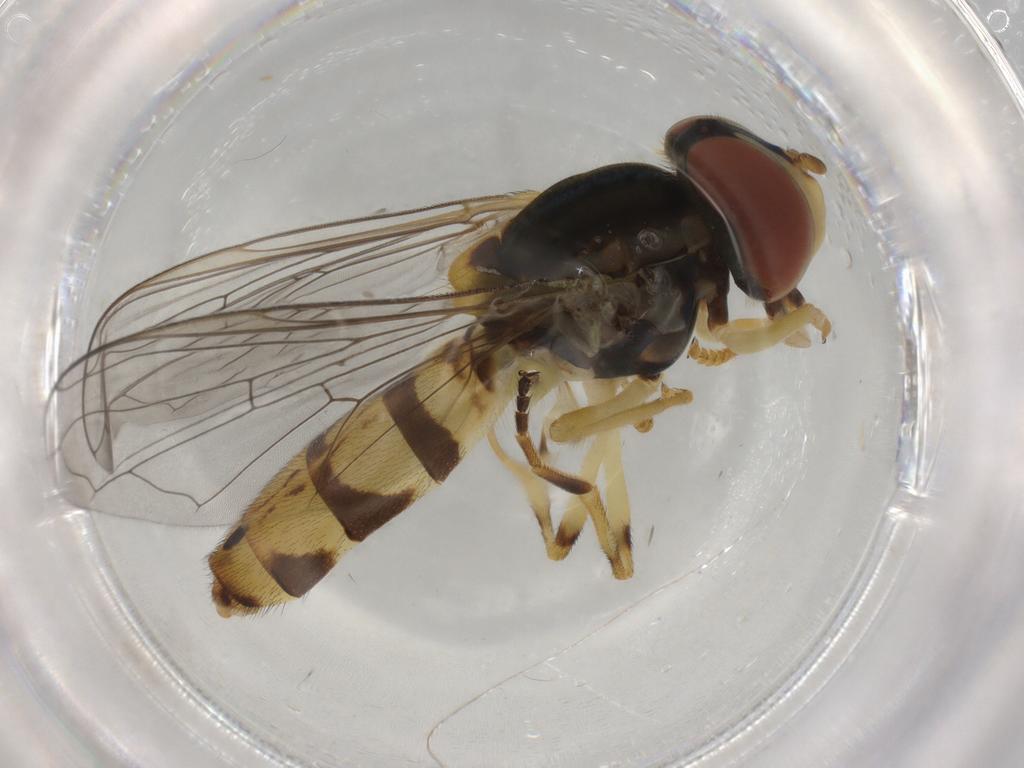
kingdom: Animalia
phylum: Arthropoda
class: Insecta
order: Diptera
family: Syrphidae
